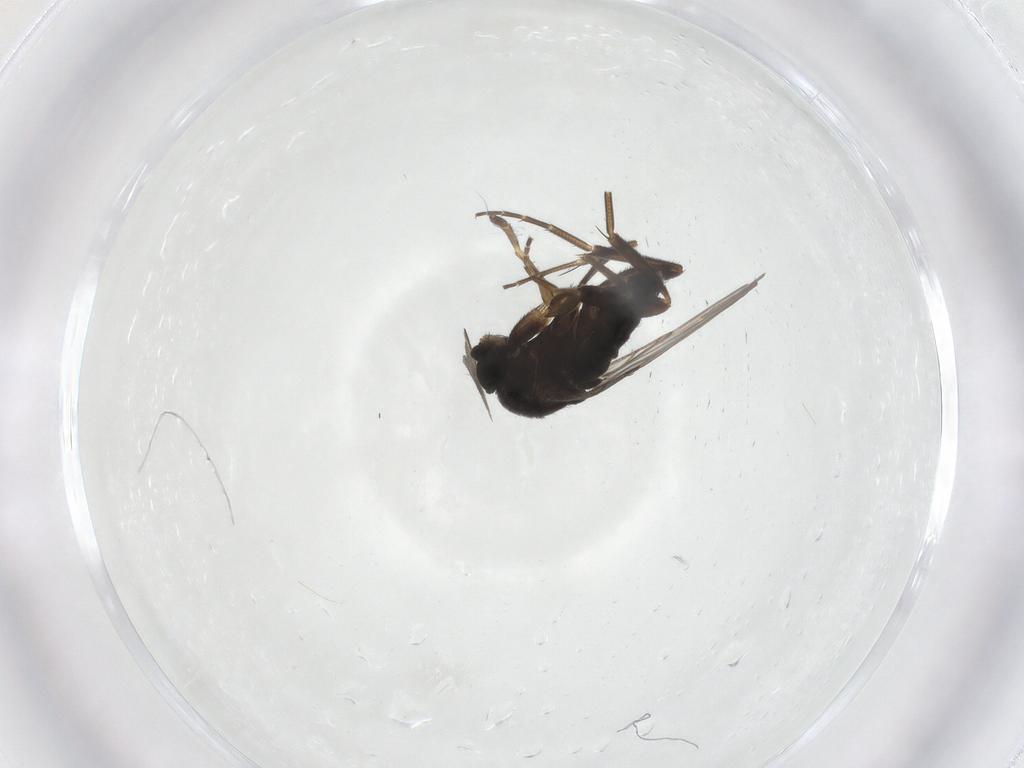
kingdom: Animalia
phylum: Arthropoda
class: Insecta
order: Diptera
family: Phoridae
